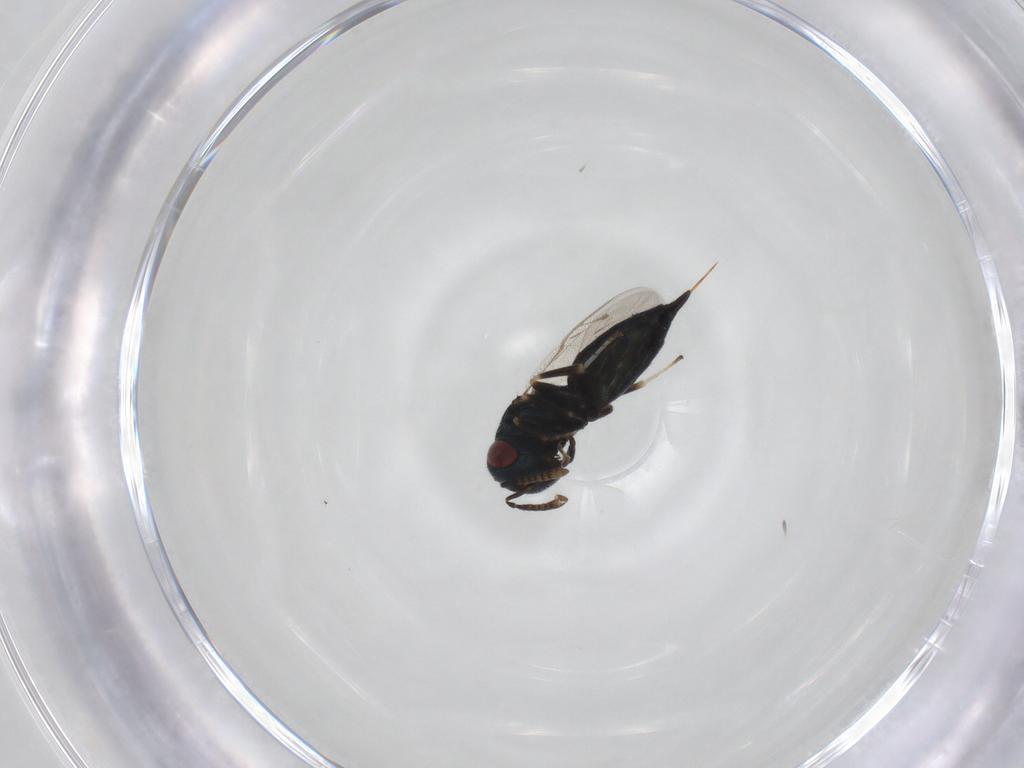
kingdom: Animalia
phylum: Arthropoda
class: Insecta
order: Hymenoptera
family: Pteromalidae
